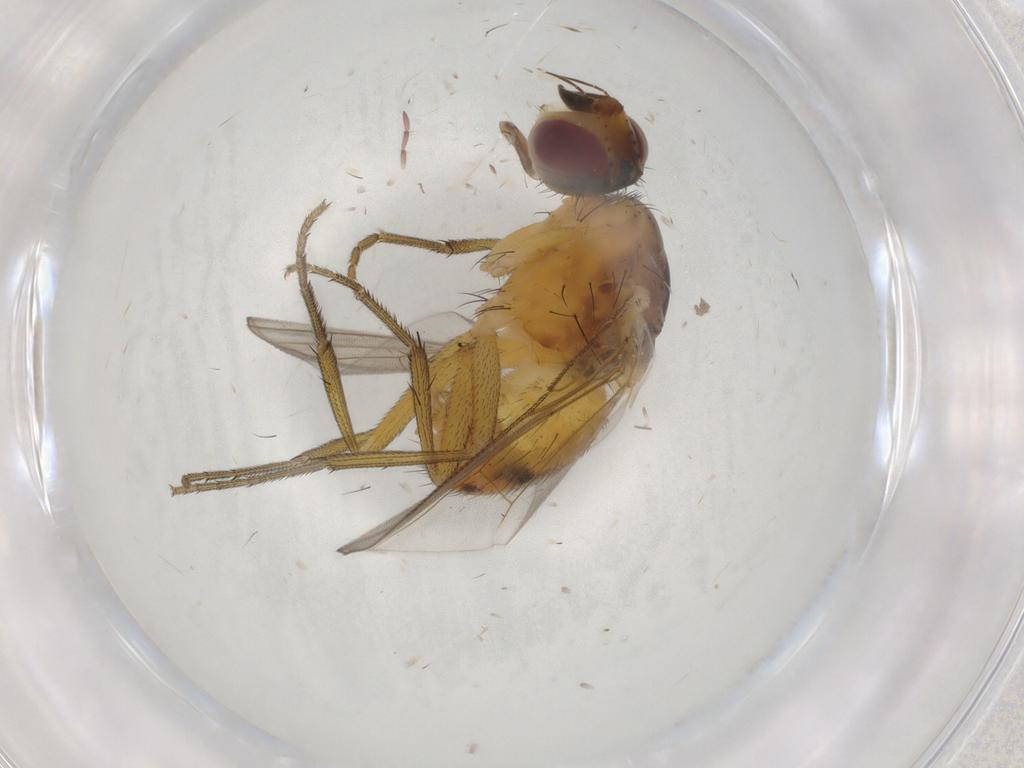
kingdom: Animalia
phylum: Arthropoda
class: Insecta
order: Diptera
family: Muscidae
